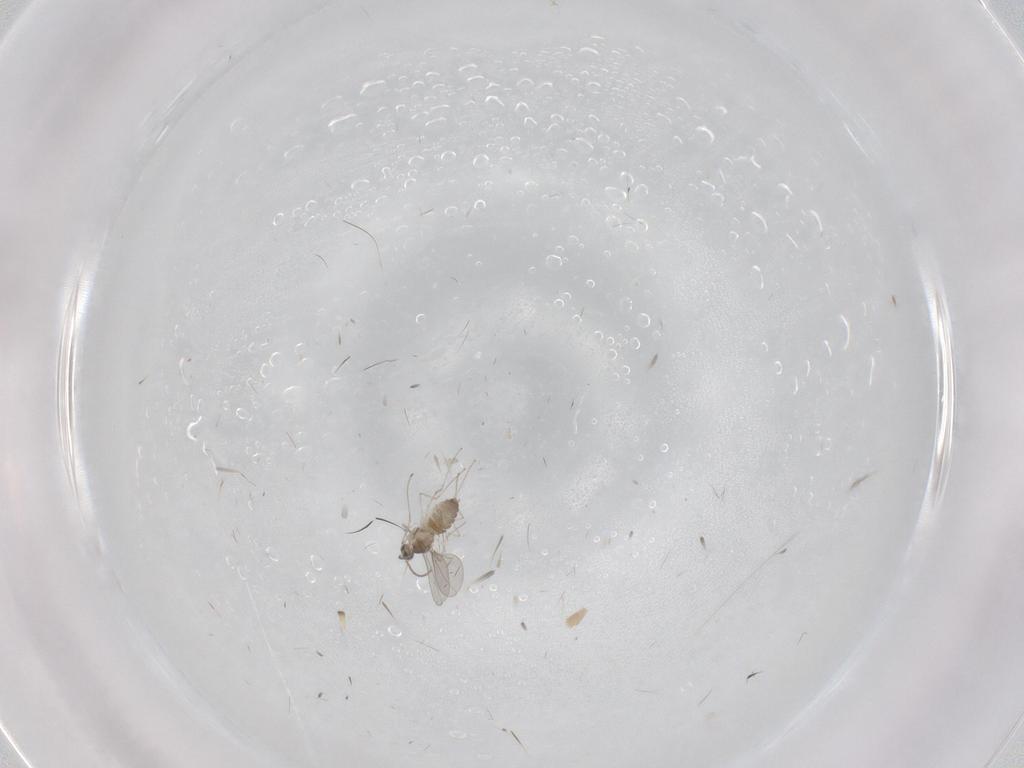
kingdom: Animalia
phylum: Arthropoda
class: Insecta
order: Diptera
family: Cecidomyiidae
